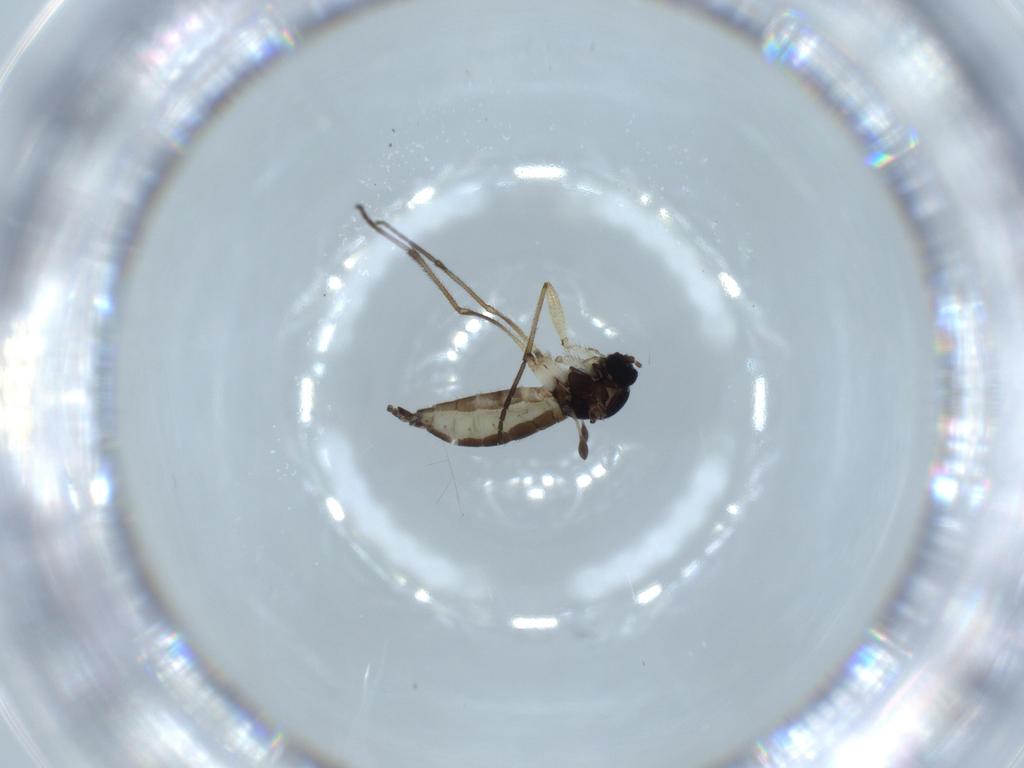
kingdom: Animalia
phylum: Arthropoda
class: Insecta
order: Diptera
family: Sciaridae
